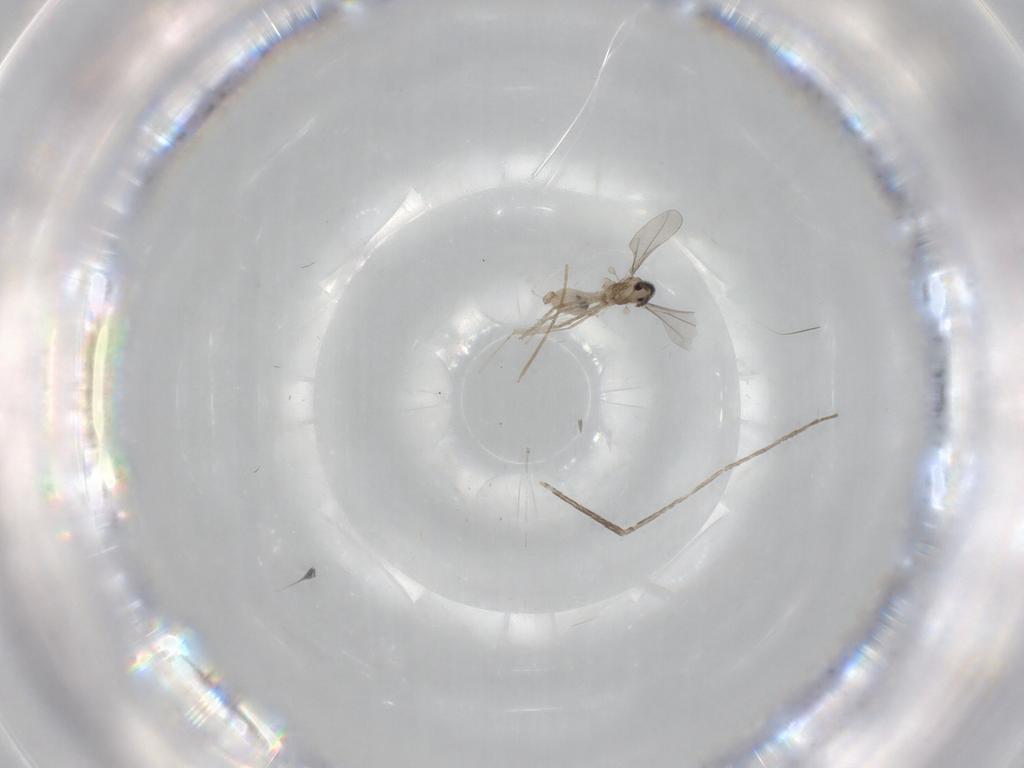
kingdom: Animalia
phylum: Arthropoda
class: Insecta
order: Diptera
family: Cecidomyiidae
